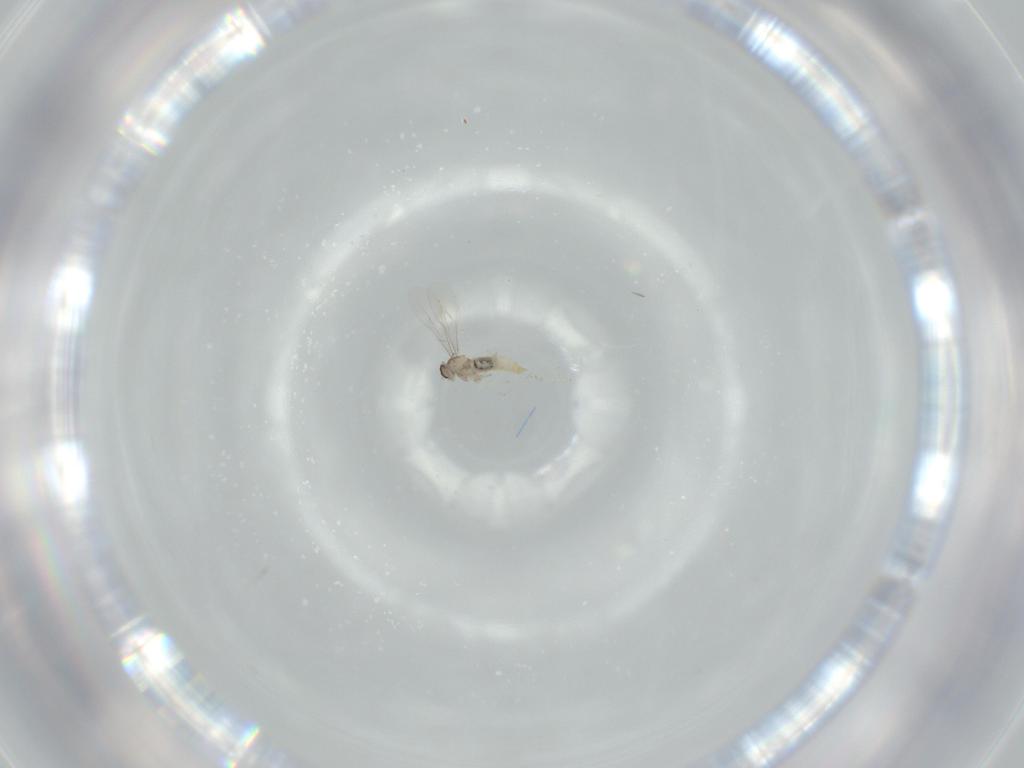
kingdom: Animalia
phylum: Arthropoda
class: Insecta
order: Diptera
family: Cecidomyiidae
